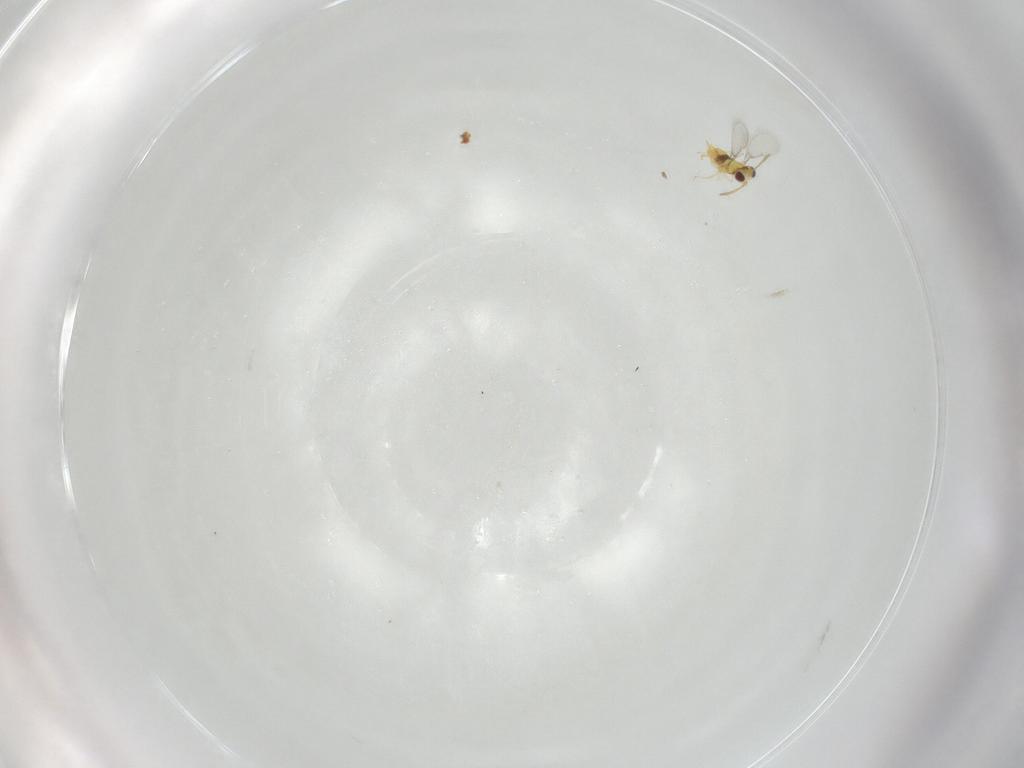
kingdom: Animalia
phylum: Arthropoda
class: Insecta
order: Hymenoptera
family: Aphelinidae
